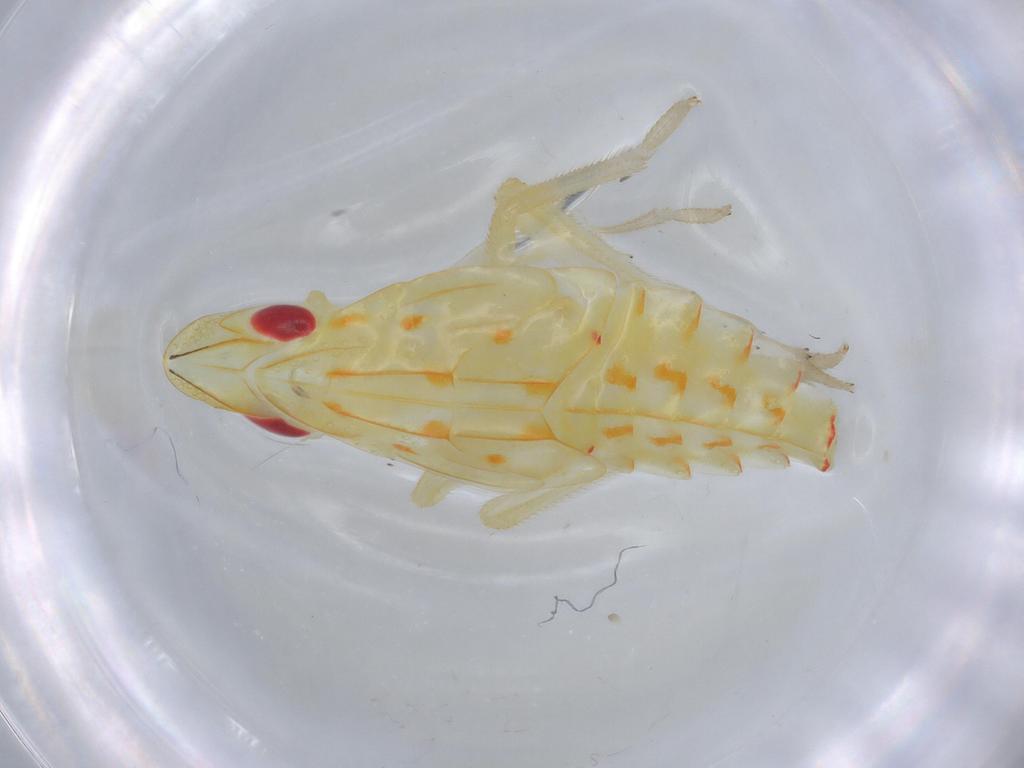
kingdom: Animalia
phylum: Arthropoda
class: Insecta
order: Hemiptera
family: Tropiduchidae
